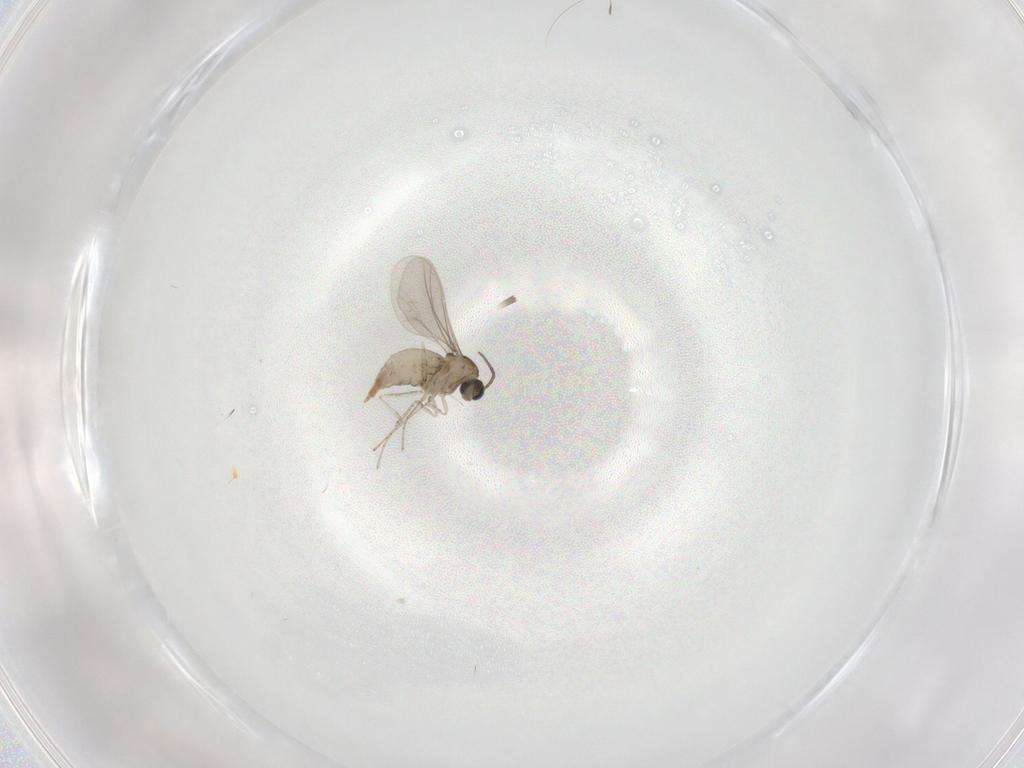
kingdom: Animalia
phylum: Arthropoda
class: Insecta
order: Diptera
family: Cecidomyiidae
